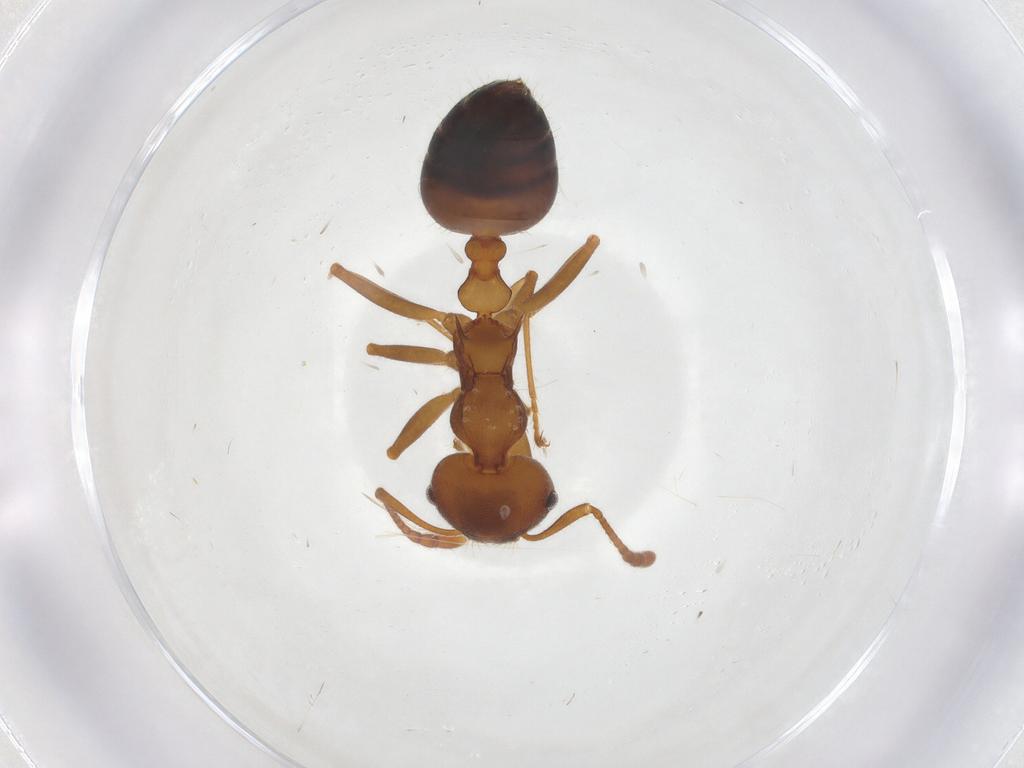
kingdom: Animalia
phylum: Arthropoda
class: Insecta
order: Hymenoptera
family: Formicidae
